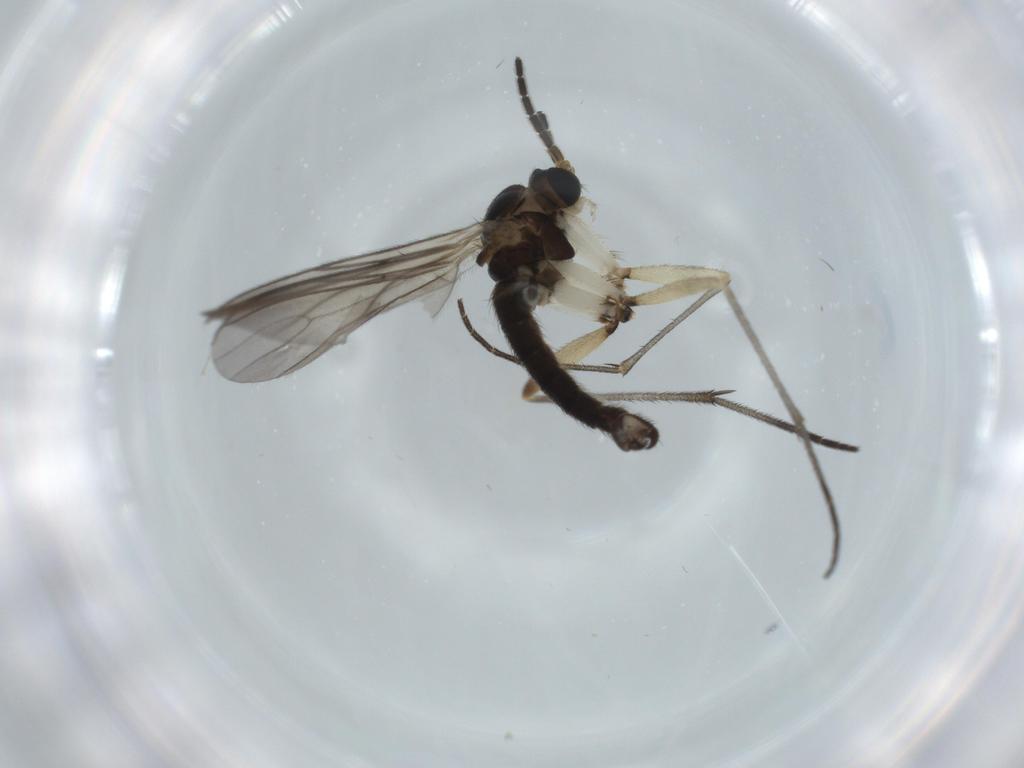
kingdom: Animalia
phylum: Arthropoda
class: Insecta
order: Diptera
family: Sciaridae
